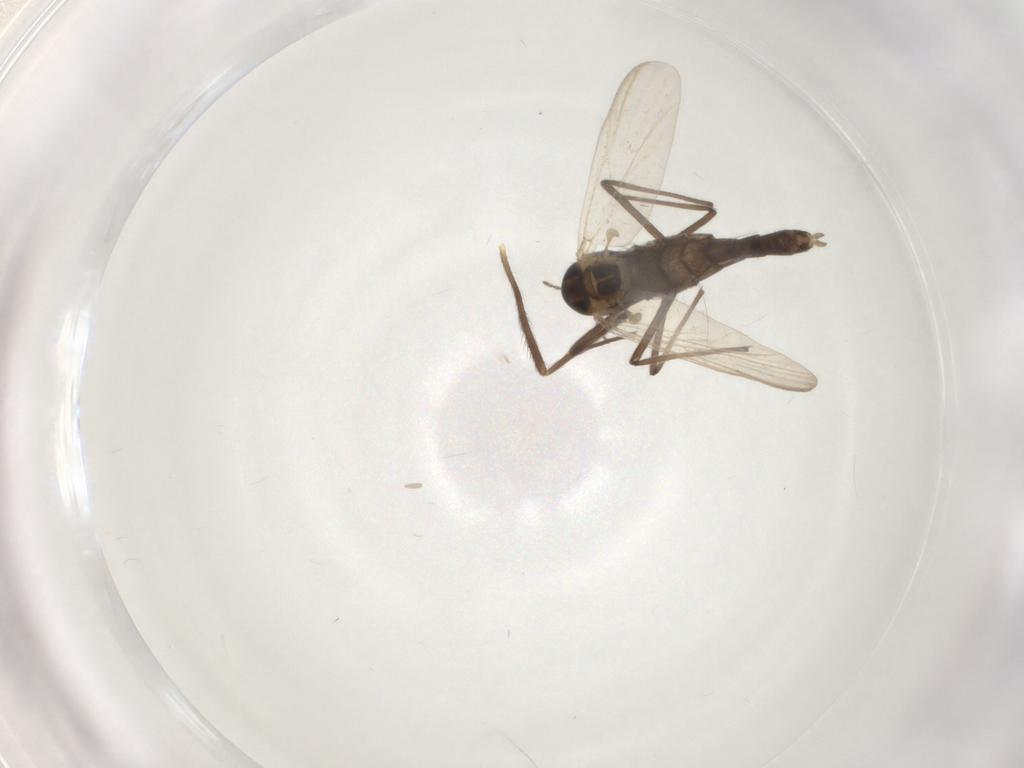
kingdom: Animalia
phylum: Arthropoda
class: Insecta
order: Diptera
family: Chironomidae
